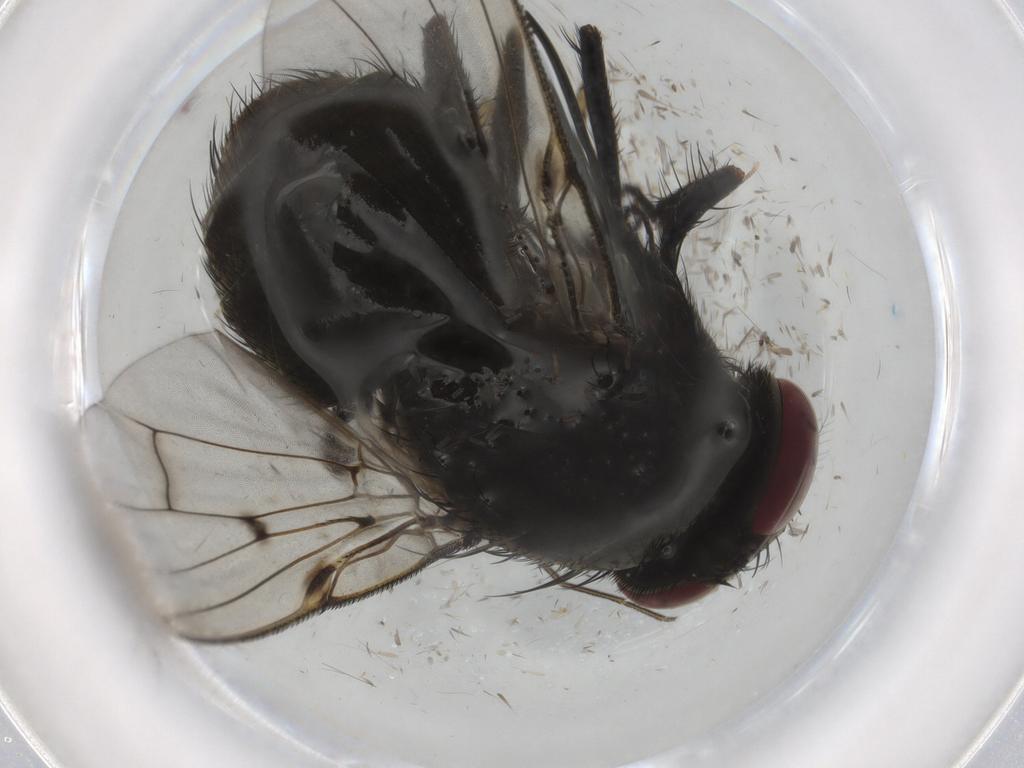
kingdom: Animalia
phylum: Arthropoda
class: Insecta
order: Diptera
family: Muscidae
